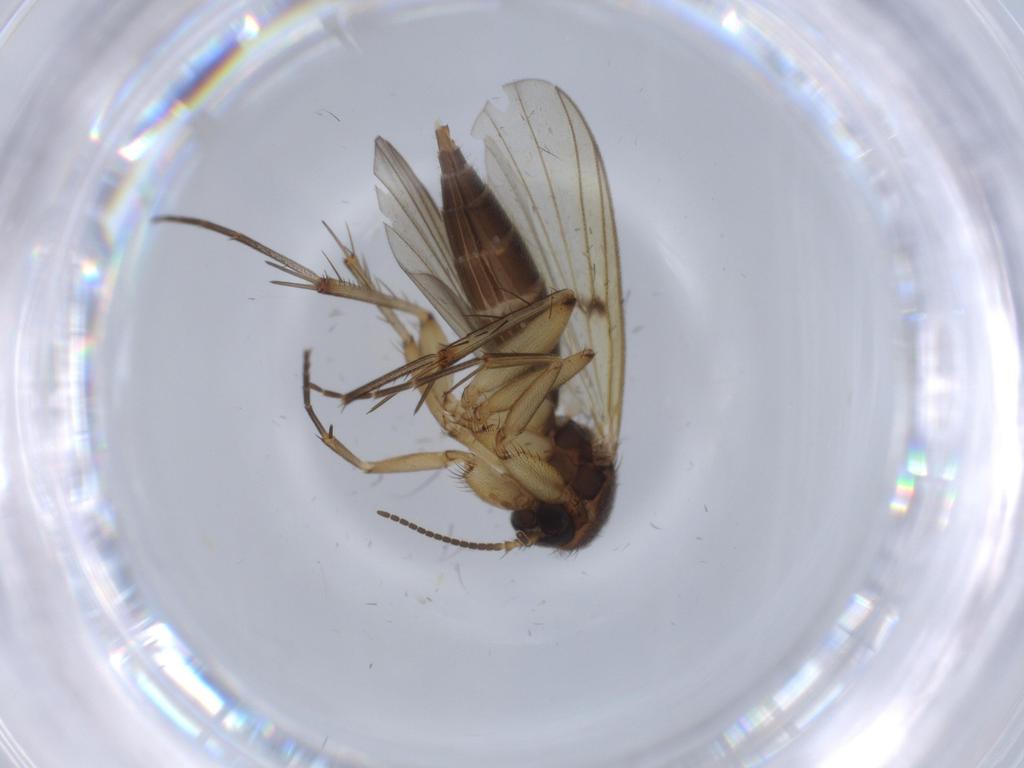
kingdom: Animalia
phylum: Arthropoda
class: Insecta
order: Diptera
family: Mycetophilidae
